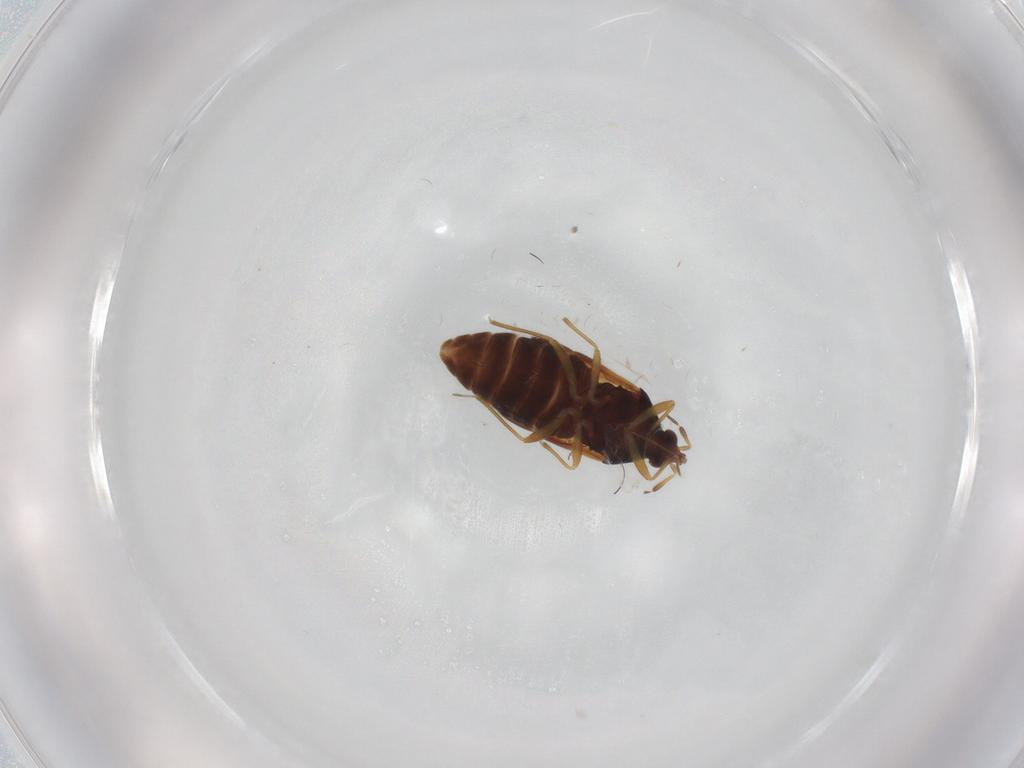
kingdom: Animalia
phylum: Arthropoda
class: Insecta
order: Hemiptera
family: Anthocoridae
